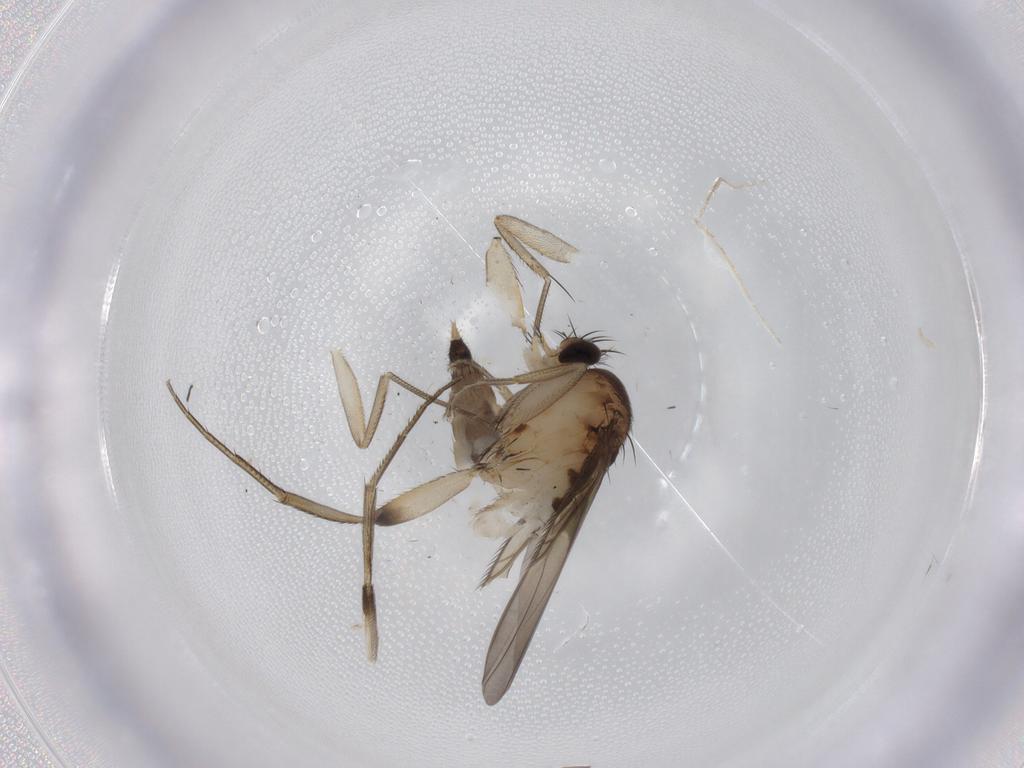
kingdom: Animalia
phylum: Arthropoda
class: Insecta
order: Diptera
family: Phoridae
